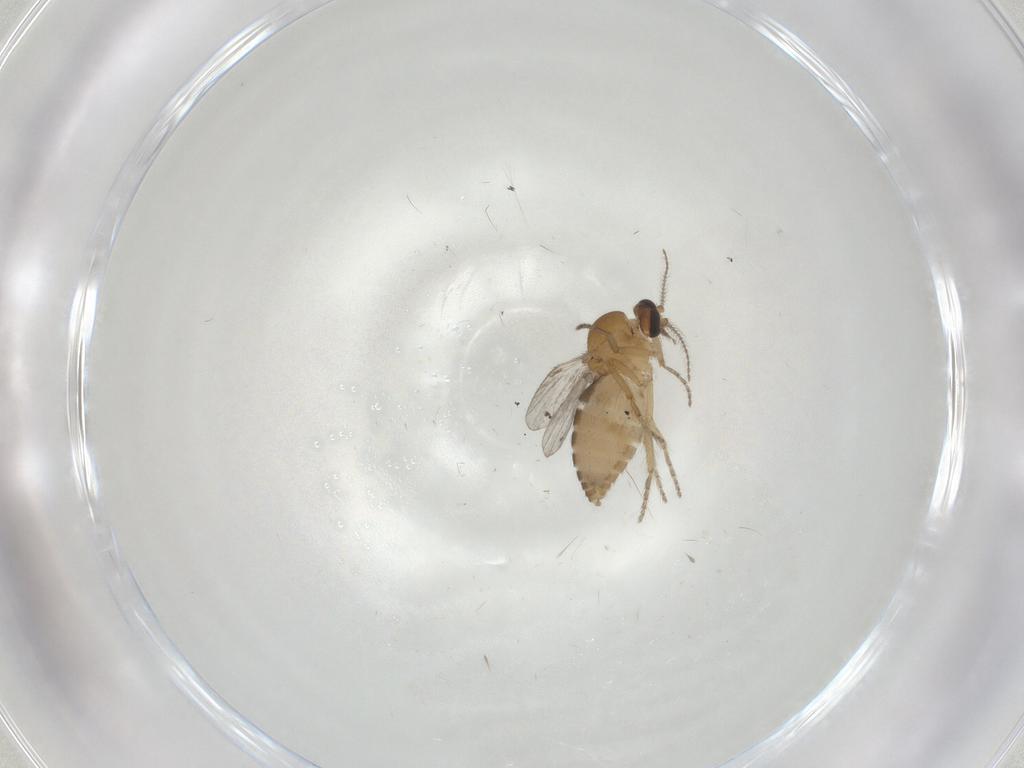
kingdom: Animalia
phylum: Arthropoda
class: Insecta
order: Diptera
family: Ceratopogonidae
